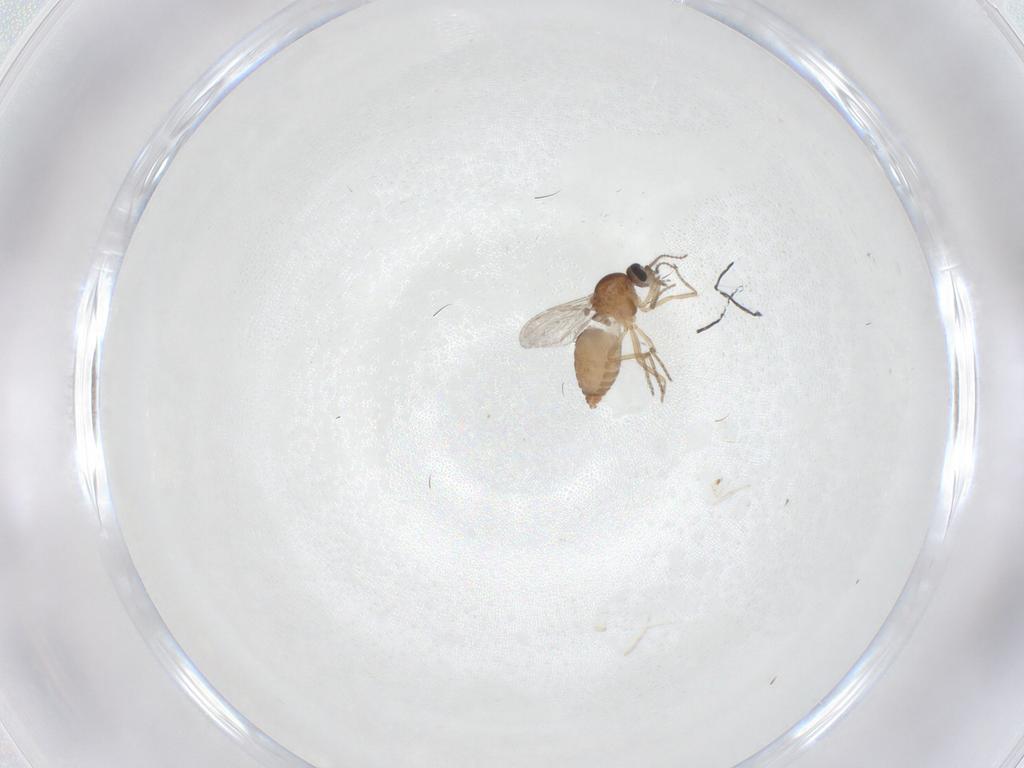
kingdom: Animalia
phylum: Arthropoda
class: Insecta
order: Diptera
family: Ceratopogonidae
